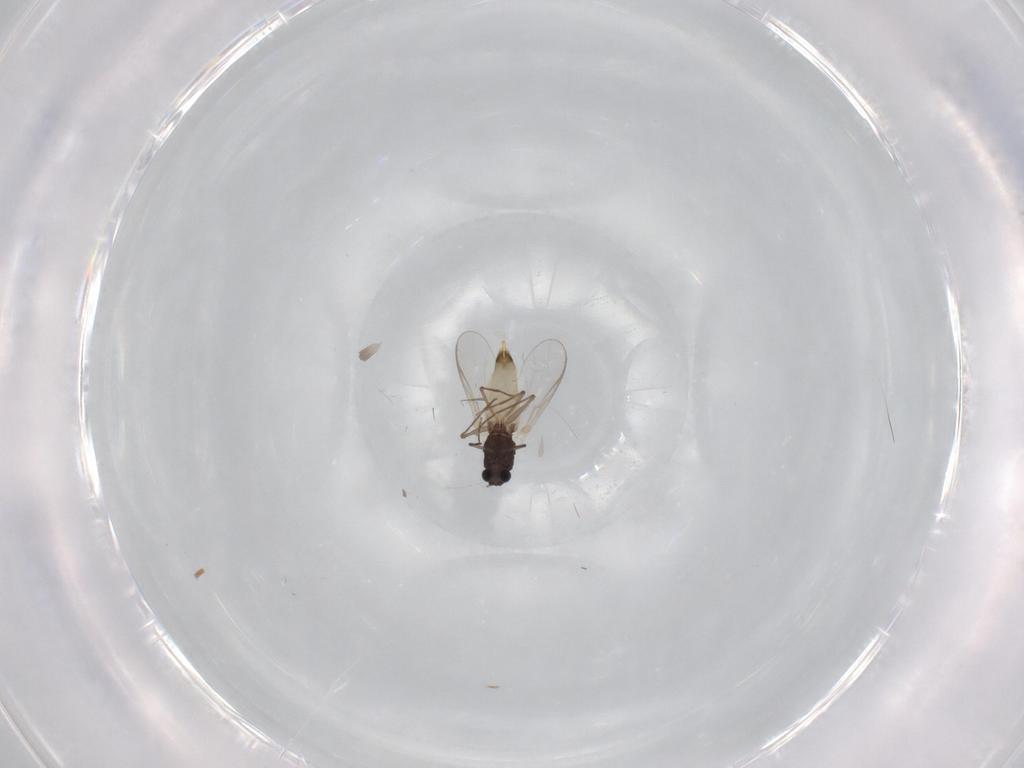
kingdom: Animalia
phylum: Arthropoda
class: Insecta
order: Diptera
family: Chironomidae
